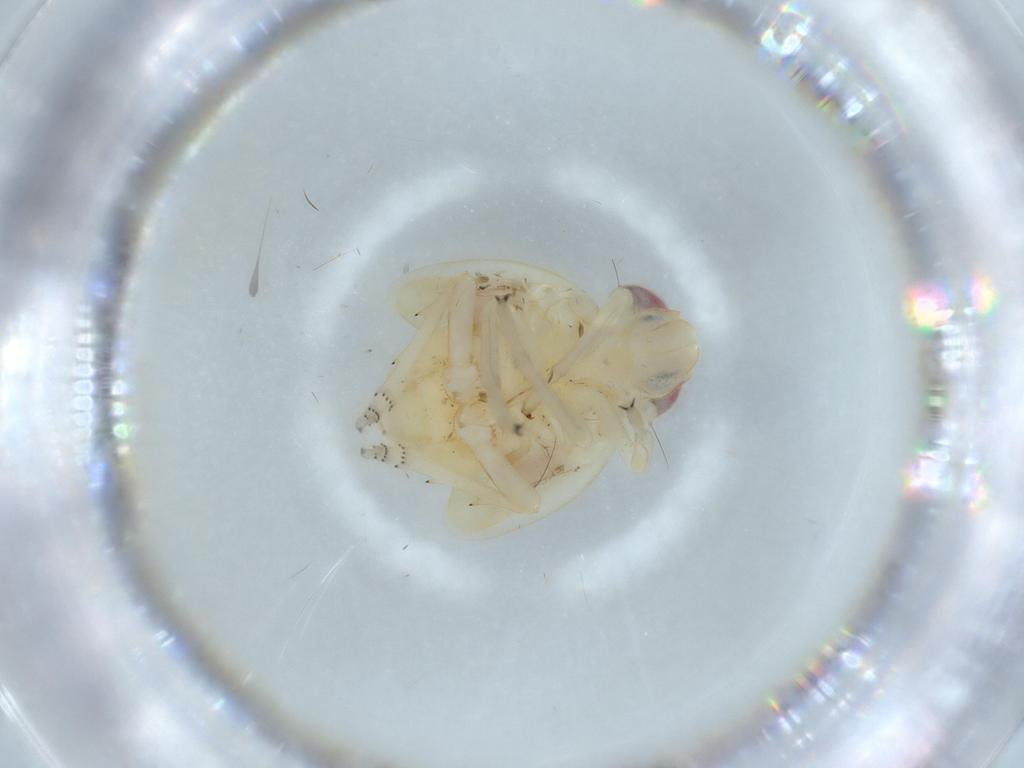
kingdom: Animalia
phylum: Arthropoda
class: Insecta
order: Hemiptera
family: Nogodinidae
